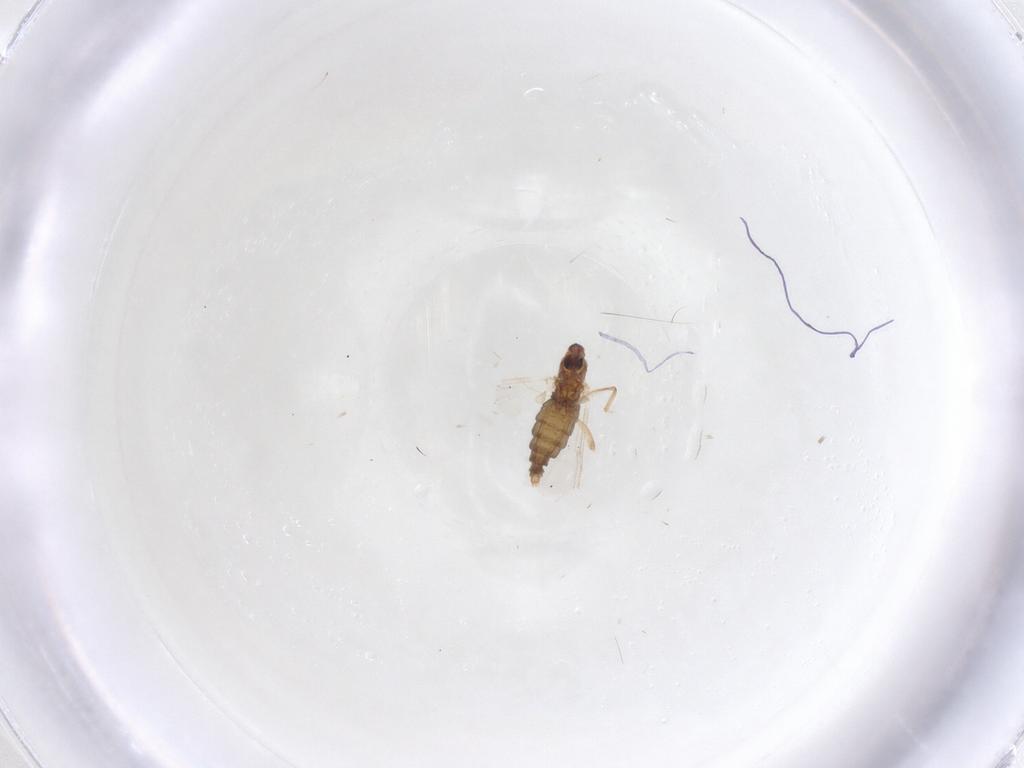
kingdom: Animalia
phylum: Arthropoda
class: Insecta
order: Diptera
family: Cecidomyiidae
